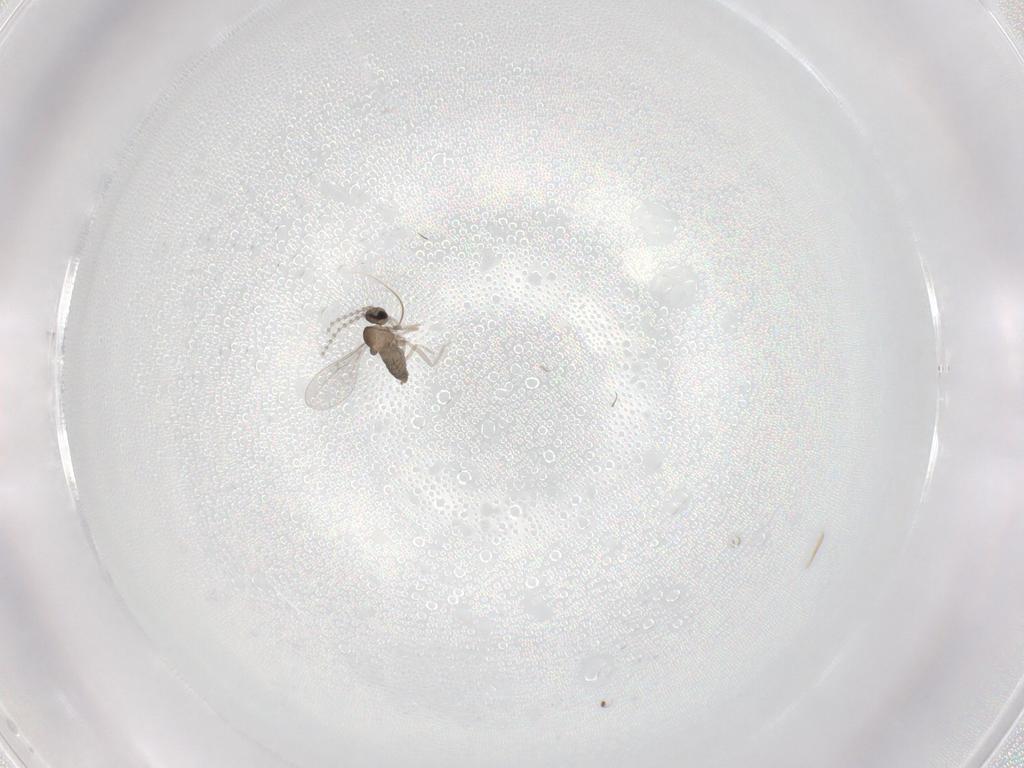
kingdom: Animalia
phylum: Arthropoda
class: Insecta
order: Diptera
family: Cecidomyiidae
